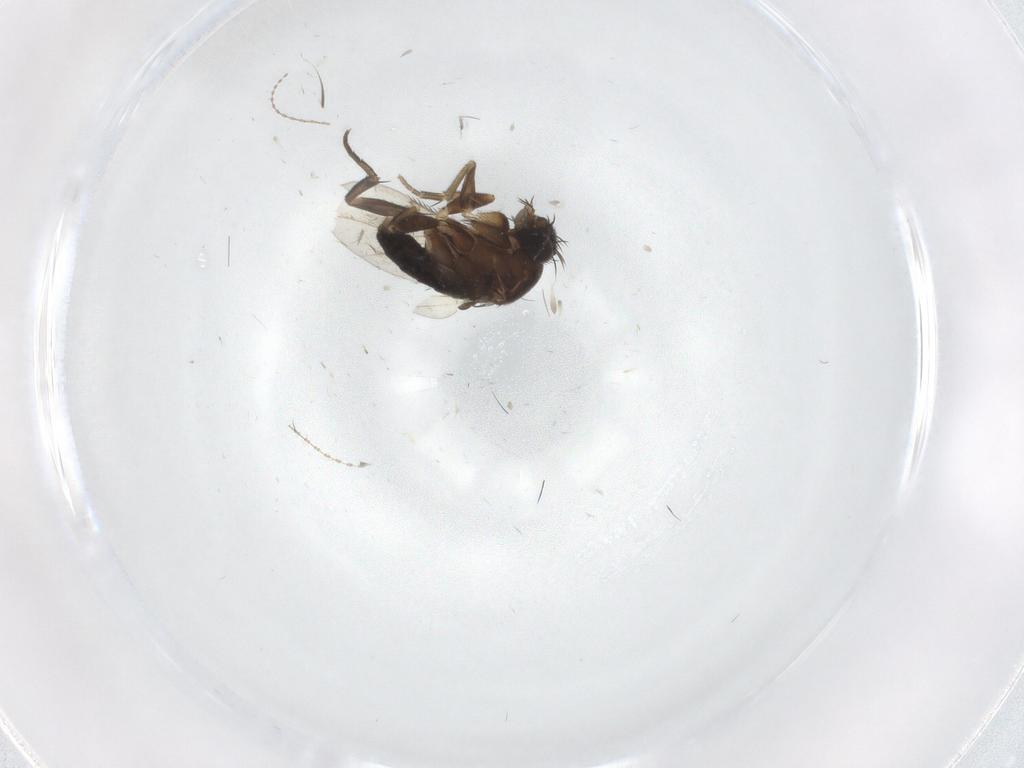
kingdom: Animalia
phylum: Arthropoda
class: Insecta
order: Diptera
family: Phoridae
